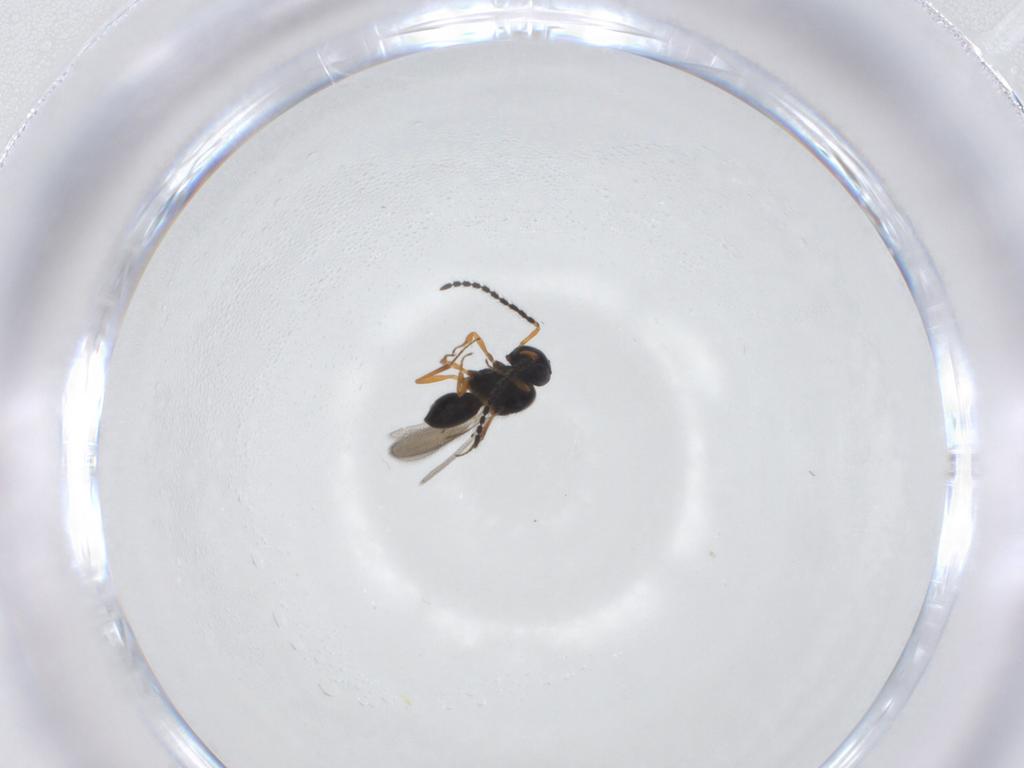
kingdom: Animalia
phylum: Arthropoda
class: Insecta
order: Hymenoptera
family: Scelionidae
